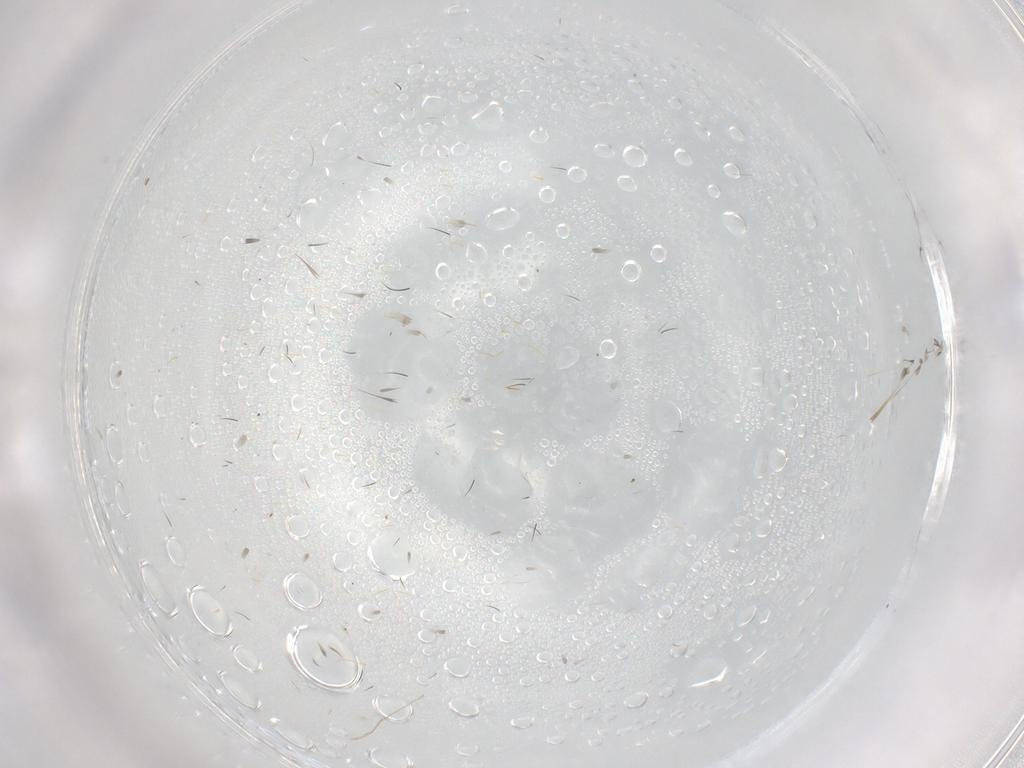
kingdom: Animalia
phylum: Arthropoda
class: Insecta
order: Diptera
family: Cecidomyiidae
